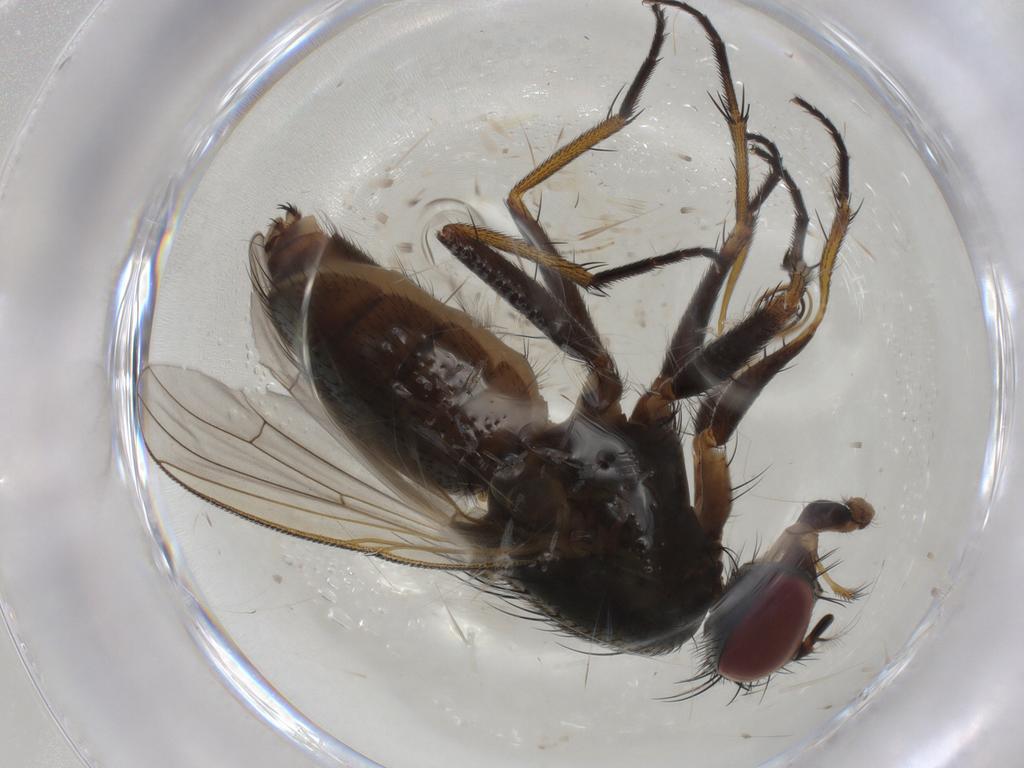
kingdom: Animalia
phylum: Arthropoda
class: Insecta
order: Diptera
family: Muscidae
